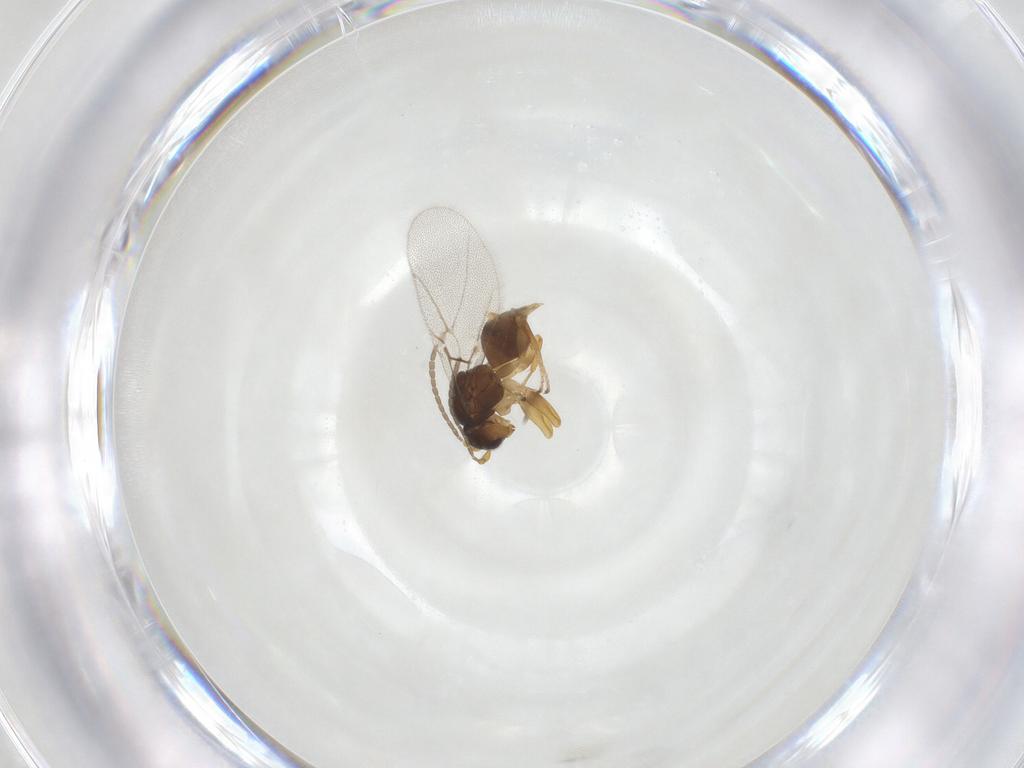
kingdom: Animalia
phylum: Arthropoda
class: Insecta
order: Hymenoptera
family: Cynipidae
